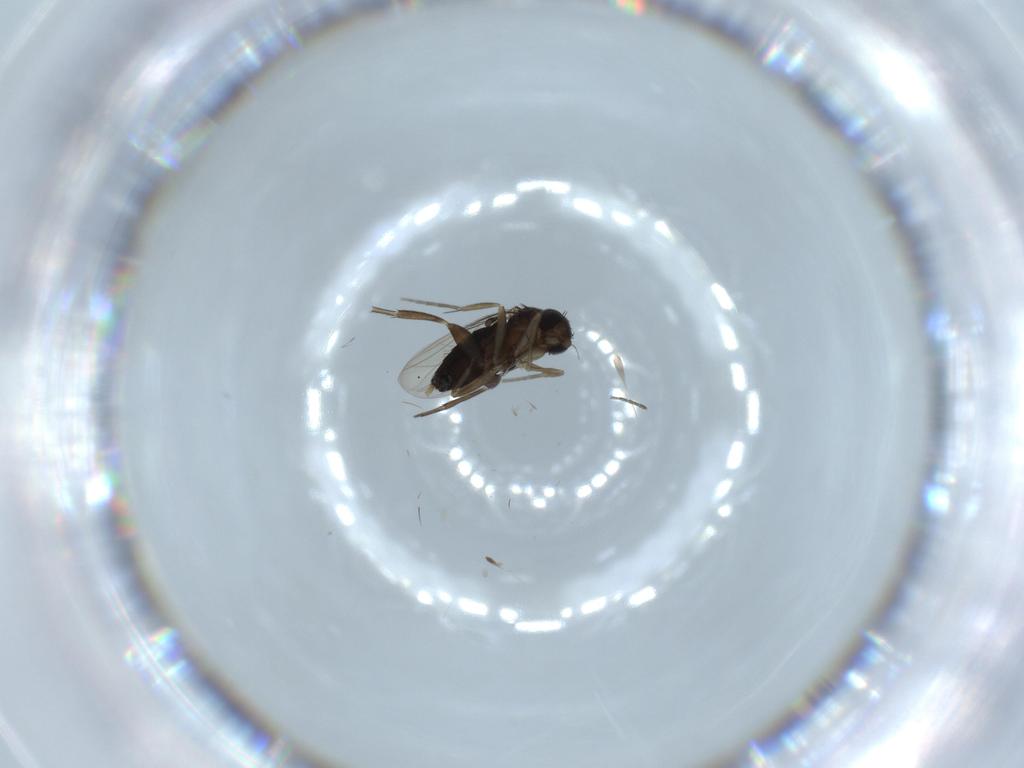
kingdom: Animalia
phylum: Arthropoda
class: Insecta
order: Diptera
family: Phoridae
